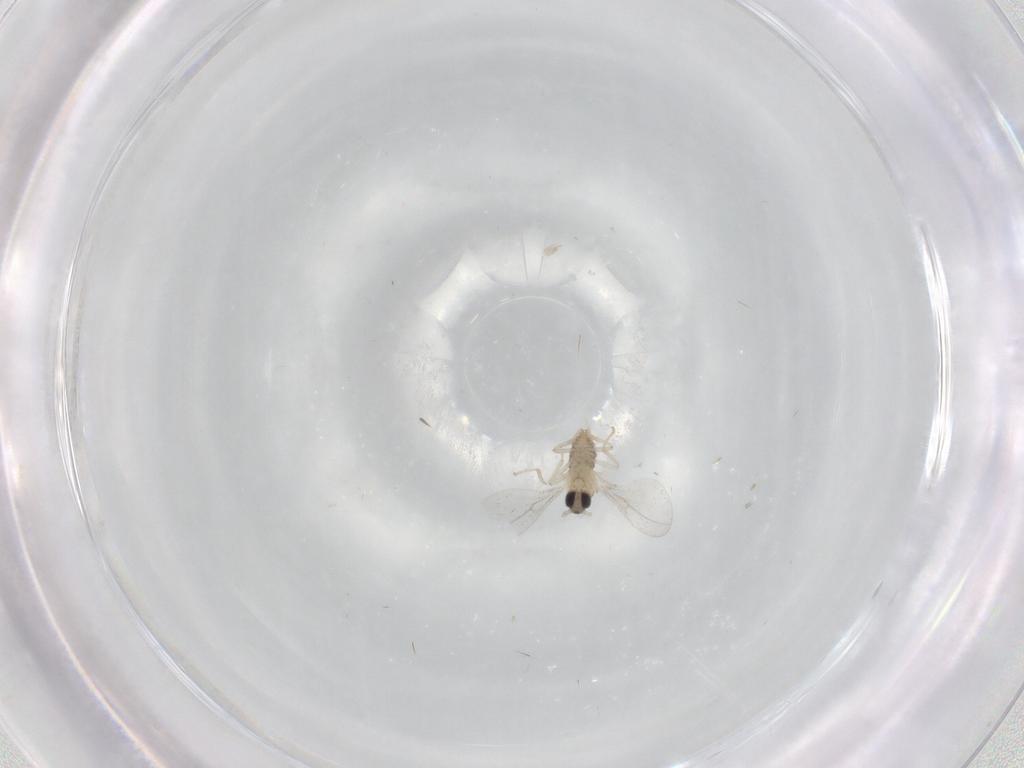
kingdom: Animalia
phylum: Arthropoda
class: Insecta
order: Diptera
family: Cecidomyiidae
